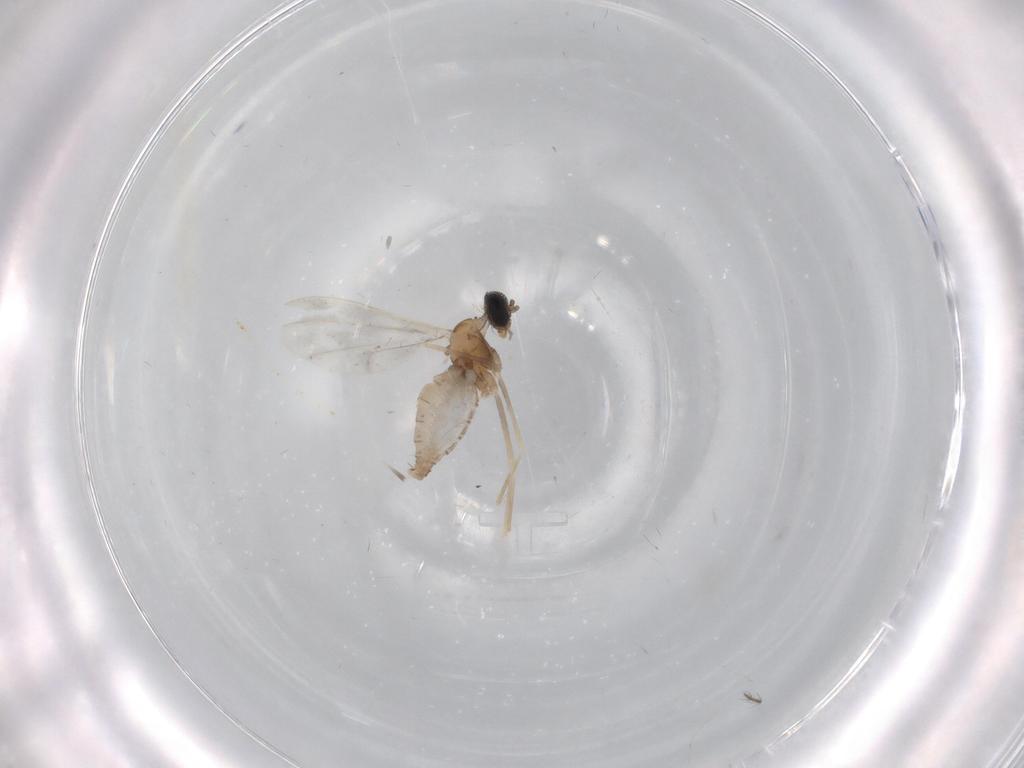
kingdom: Animalia
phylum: Arthropoda
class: Insecta
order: Diptera
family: Cecidomyiidae
